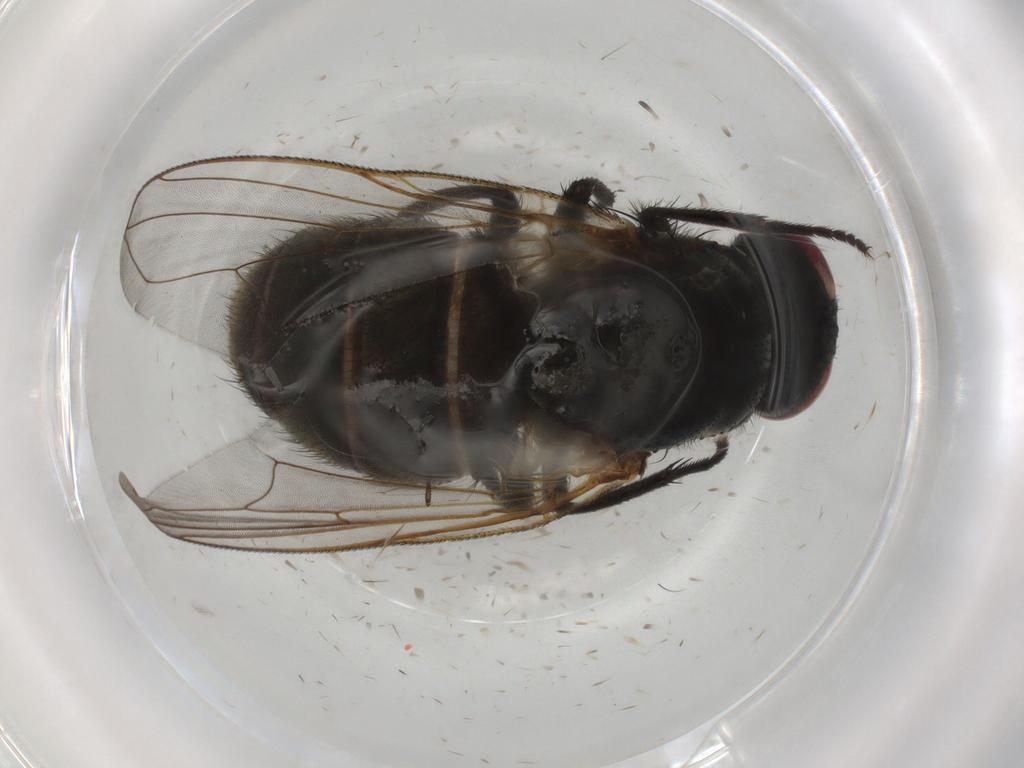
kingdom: Animalia
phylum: Arthropoda
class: Insecta
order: Diptera
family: Muscidae
